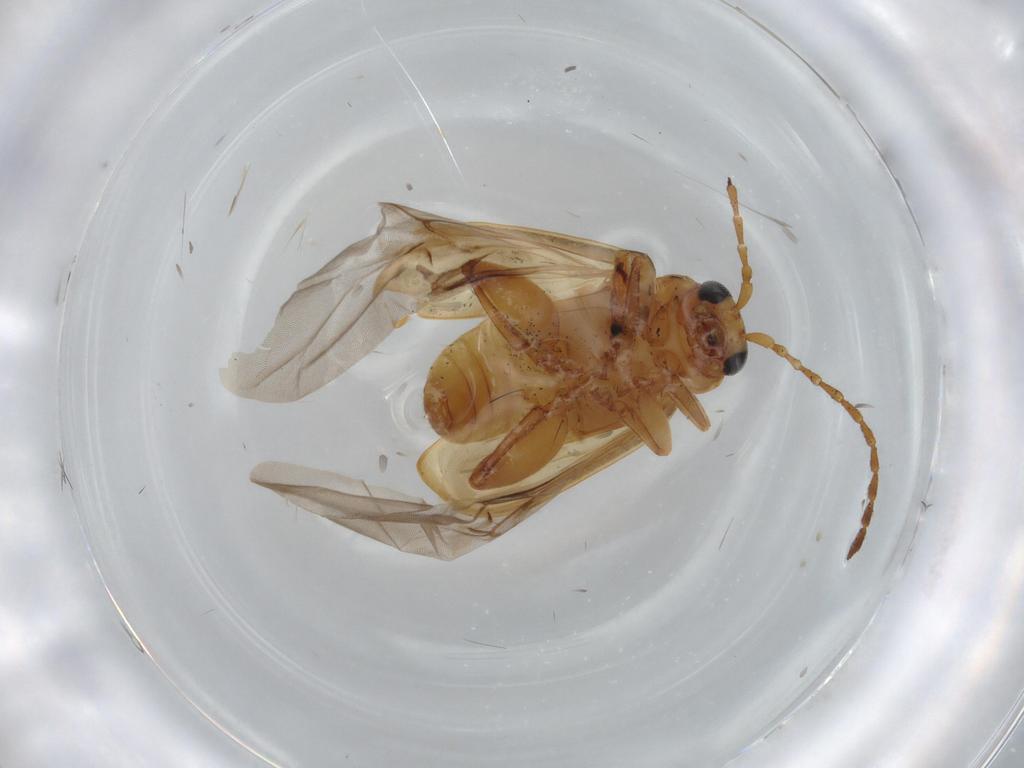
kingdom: Animalia
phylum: Arthropoda
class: Insecta
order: Coleoptera
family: Chrysomelidae
